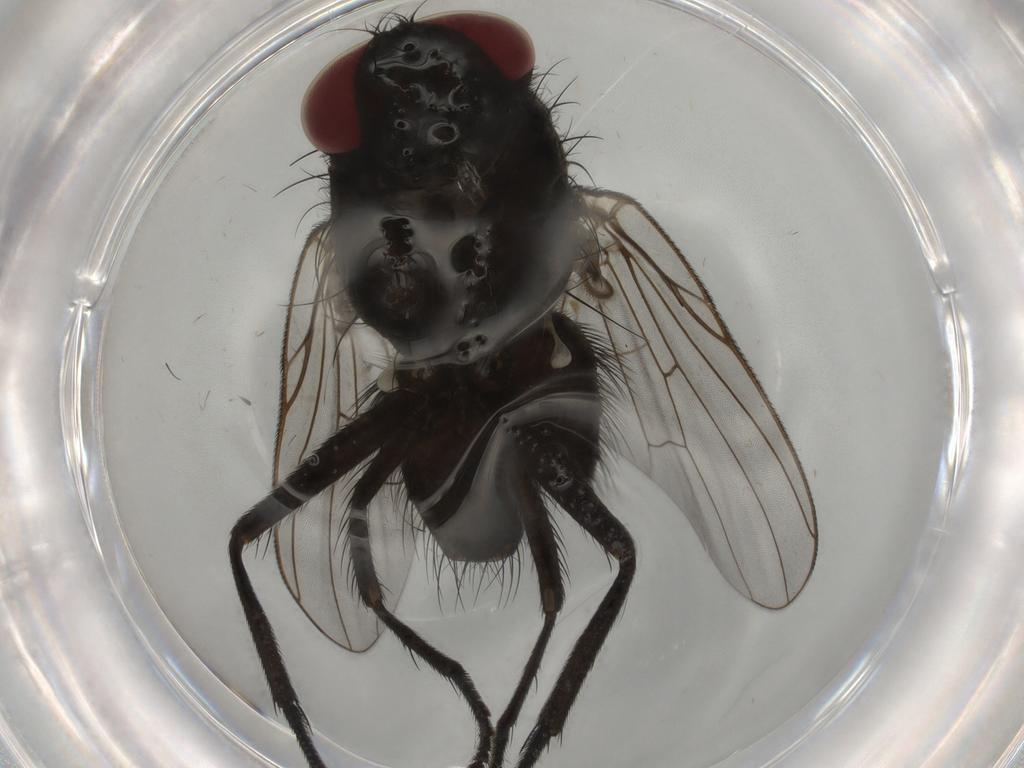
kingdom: Animalia
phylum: Arthropoda
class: Insecta
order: Diptera
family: Muscidae
